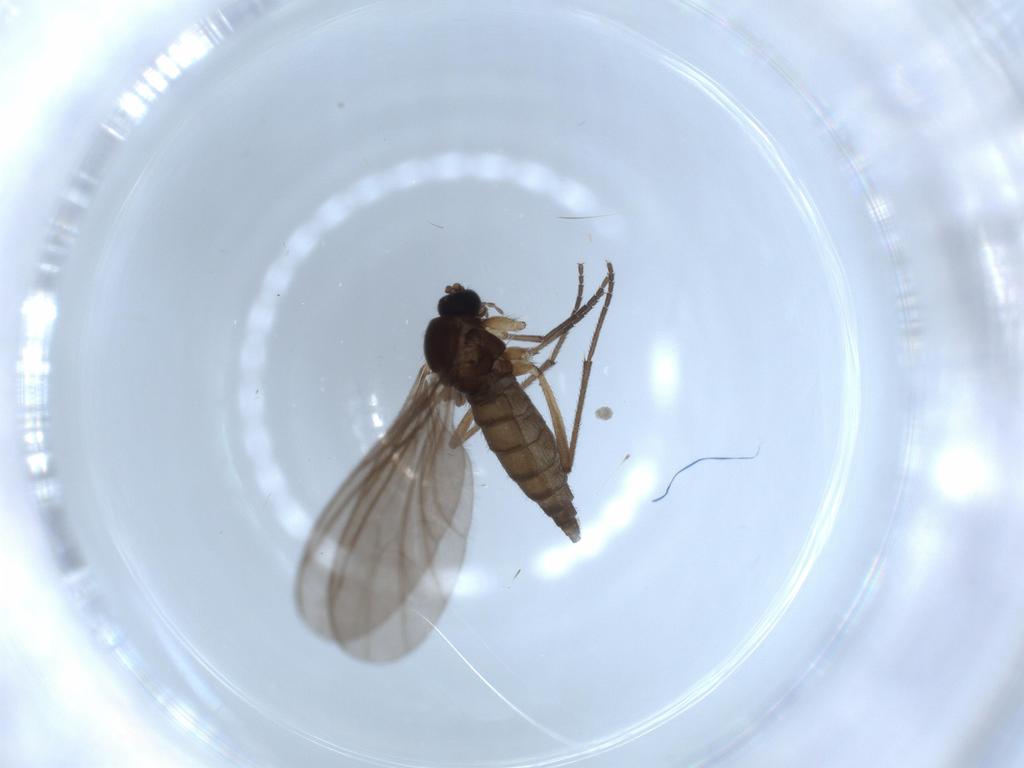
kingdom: Animalia
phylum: Arthropoda
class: Insecta
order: Diptera
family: Sciaridae
